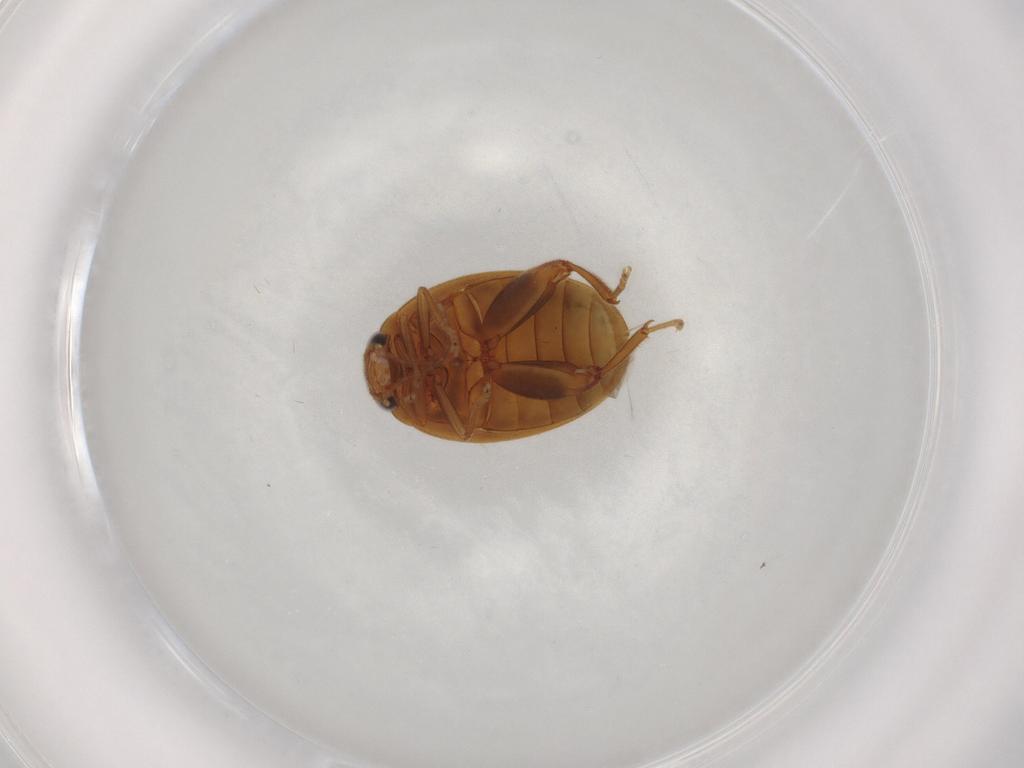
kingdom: Animalia
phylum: Arthropoda
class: Insecta
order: Coleoptera
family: Scirtidae
